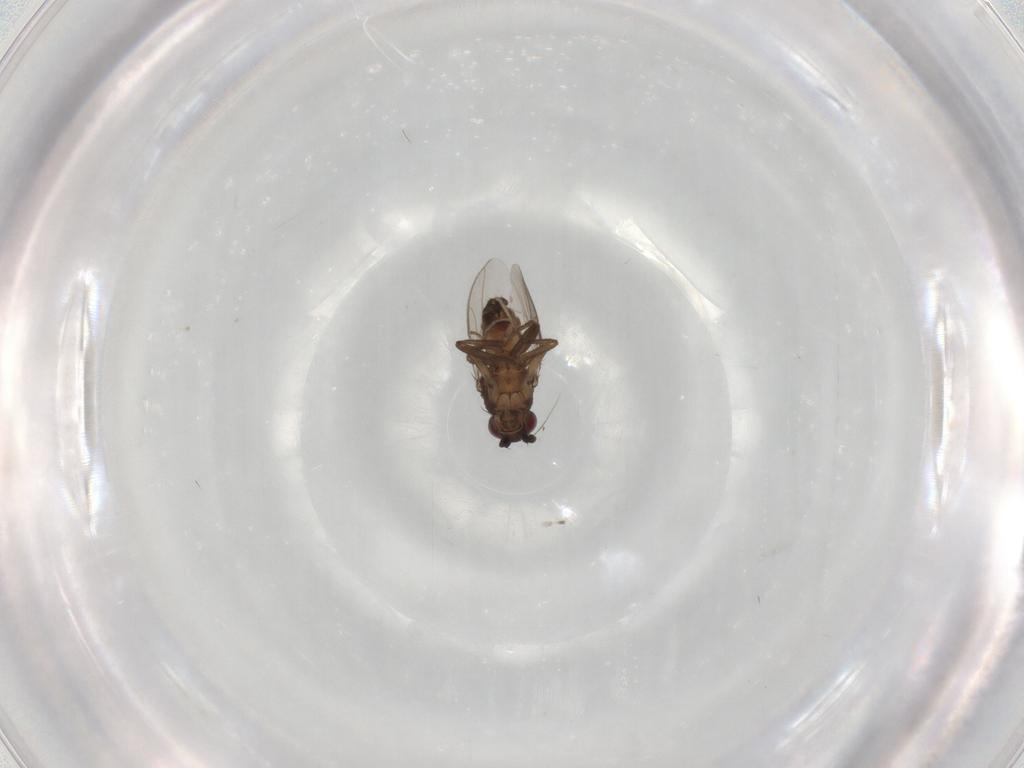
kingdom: Animalia
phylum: Arthropoda
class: Insecta
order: Diptera
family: Sphaeroceridae
